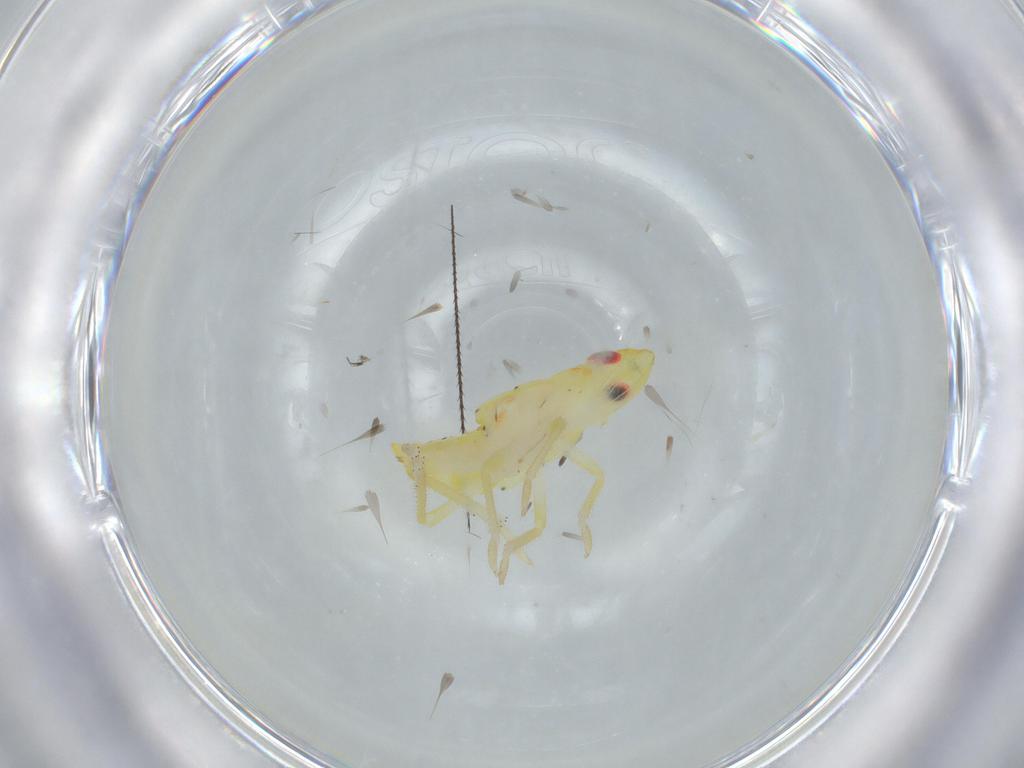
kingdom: Animalia
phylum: Arthropoda
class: Insecta
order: Hemiptera
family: Tropiduchidae
